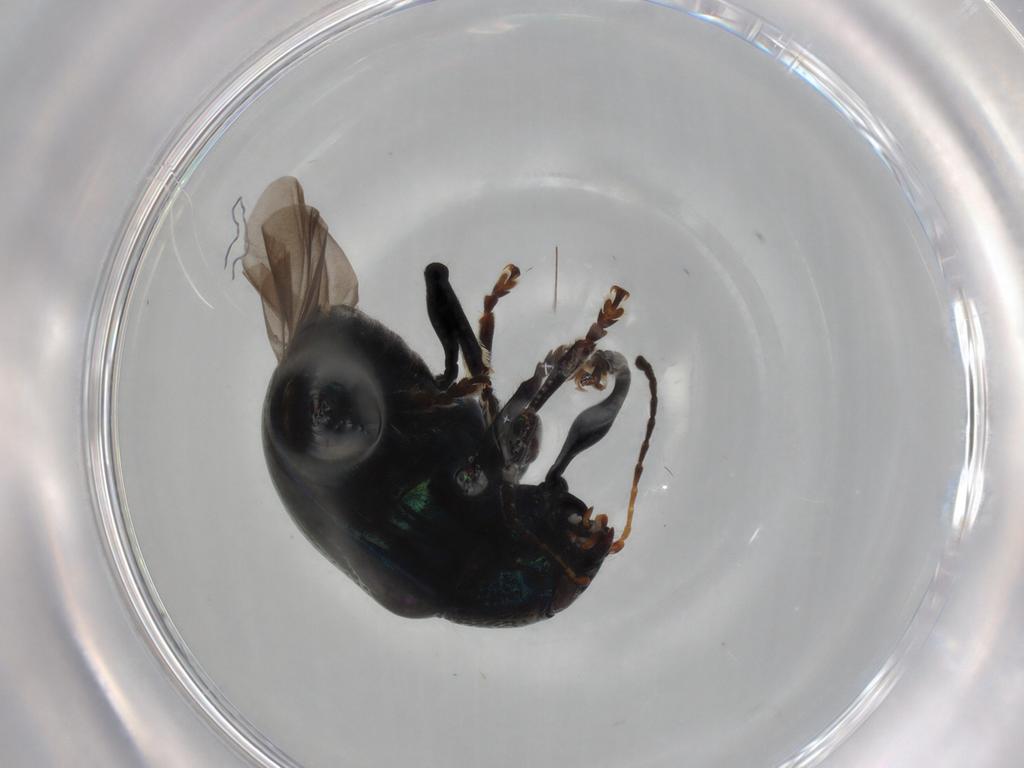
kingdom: Animalia
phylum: Arthropoda
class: Insecta
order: Coleoptera
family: Chrysomelidae
